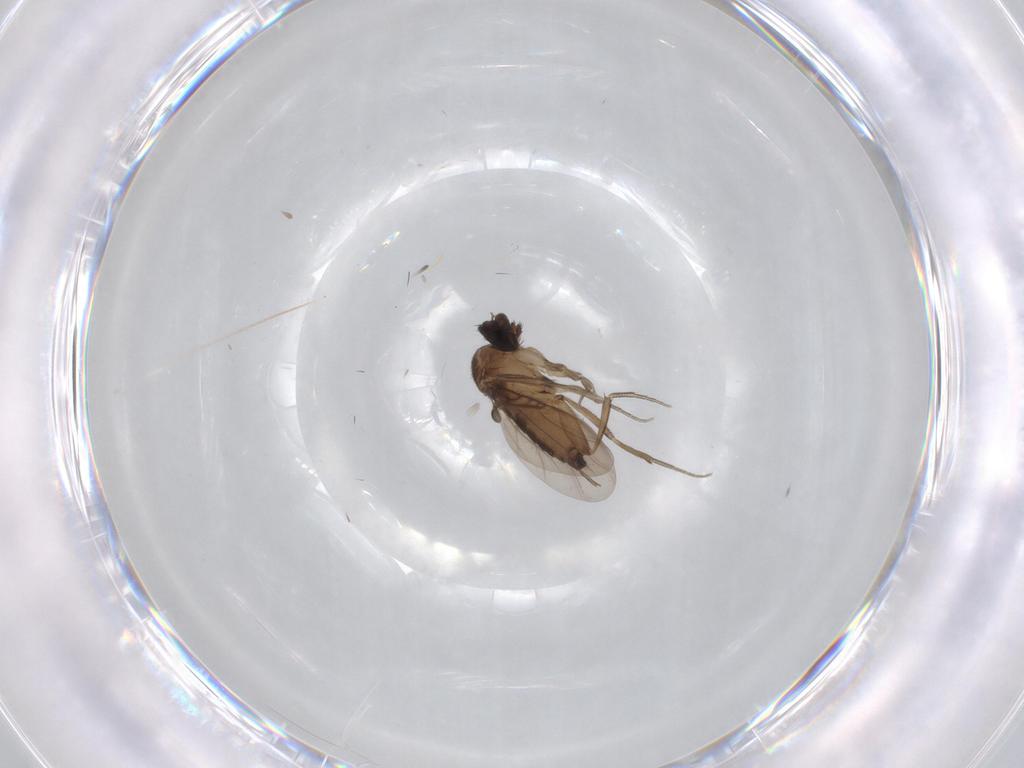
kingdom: Animalia
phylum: Arthropoda
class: Insecta
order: Diptera
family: Phoridae
